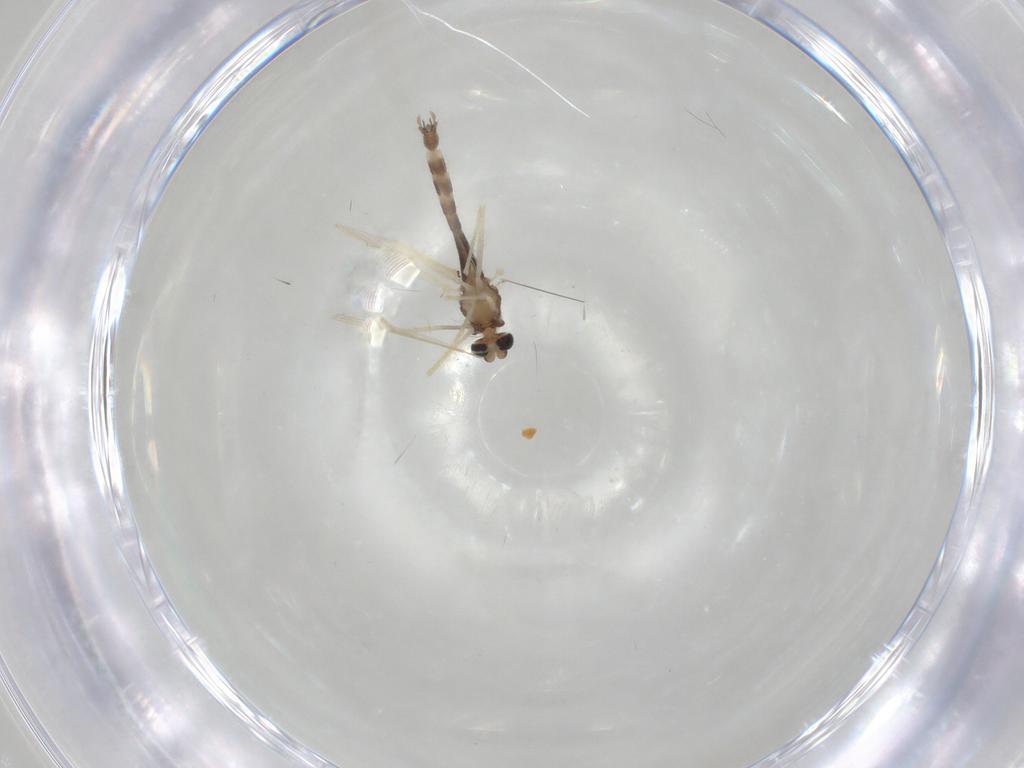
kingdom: Animalia
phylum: Arthropoda
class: Insecta
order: Diptera
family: Chironomidae
